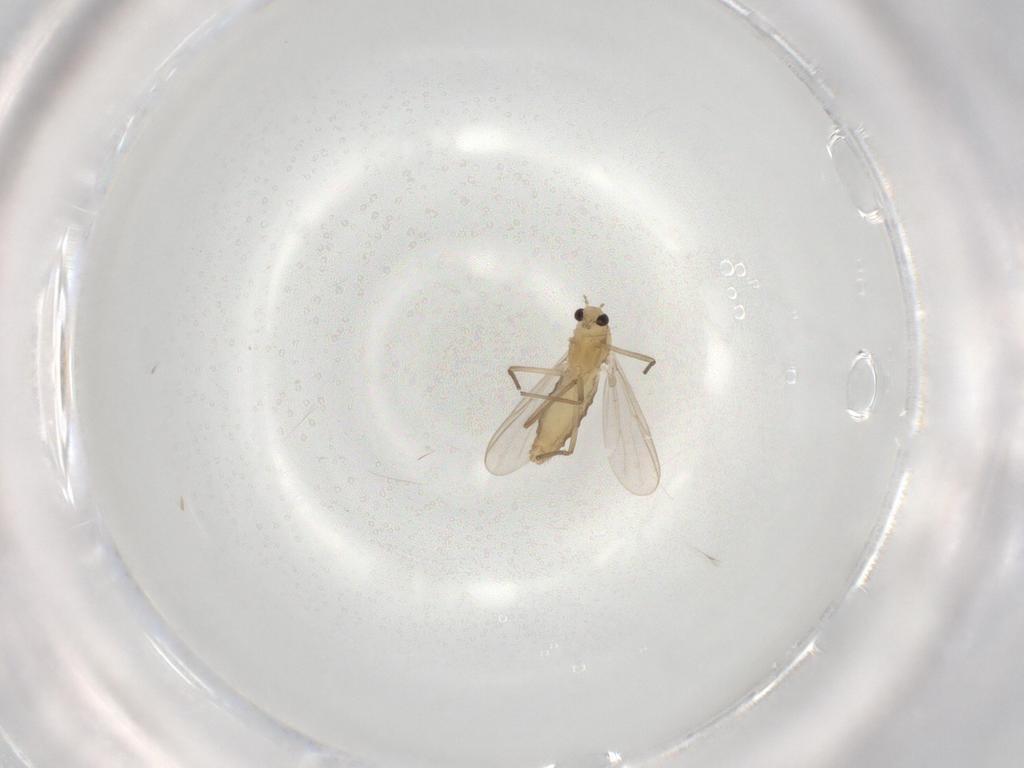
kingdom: Animalia
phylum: Arthropoda
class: Insecta
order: Diptera
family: Chironomidae
